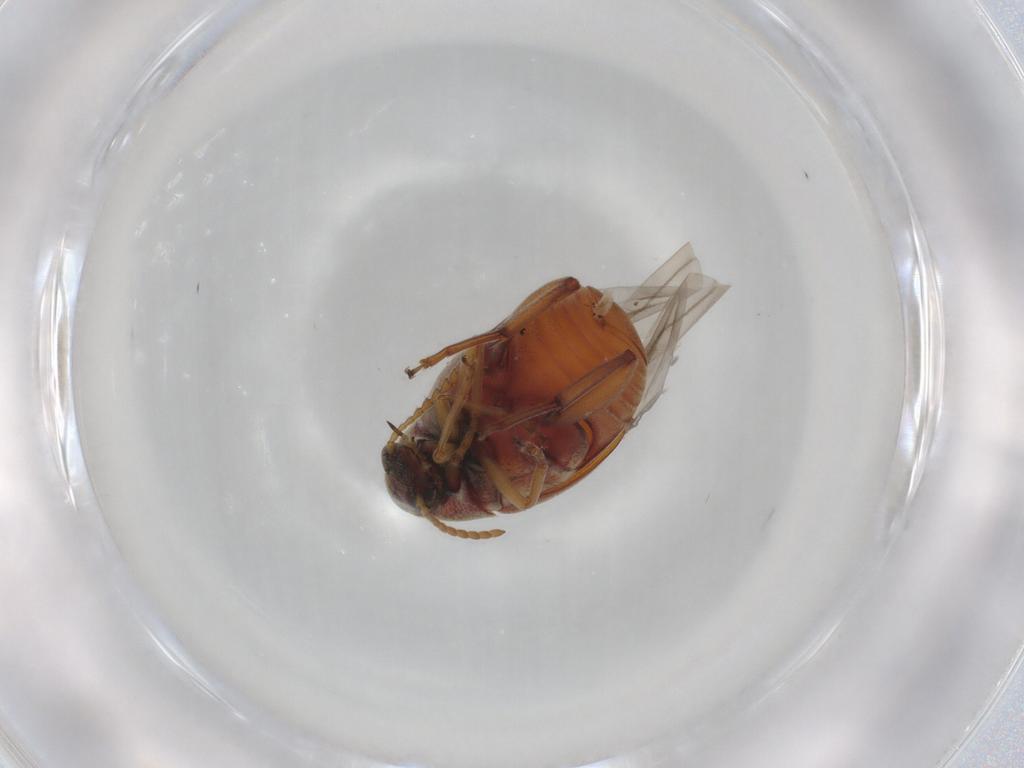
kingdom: Animalia
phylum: Arthropoda
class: Insecta
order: Coleoptera
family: Chrysomelidae
